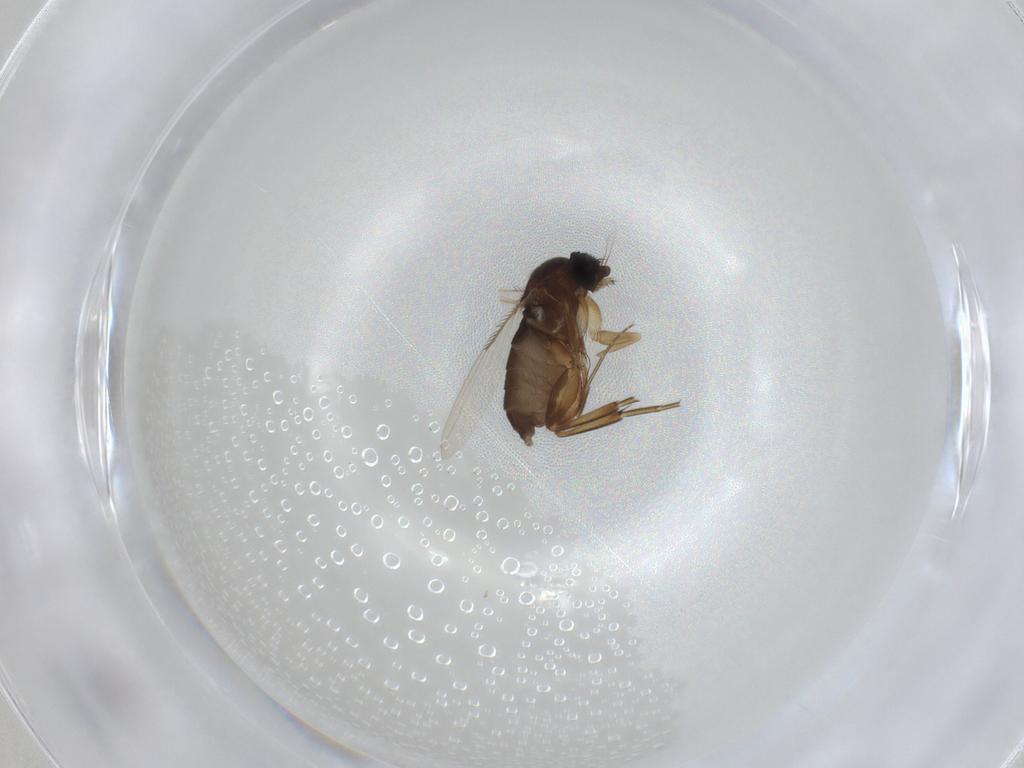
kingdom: Animalia
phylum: Arthropoda
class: Insecta
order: Diptera
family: Phoridae
